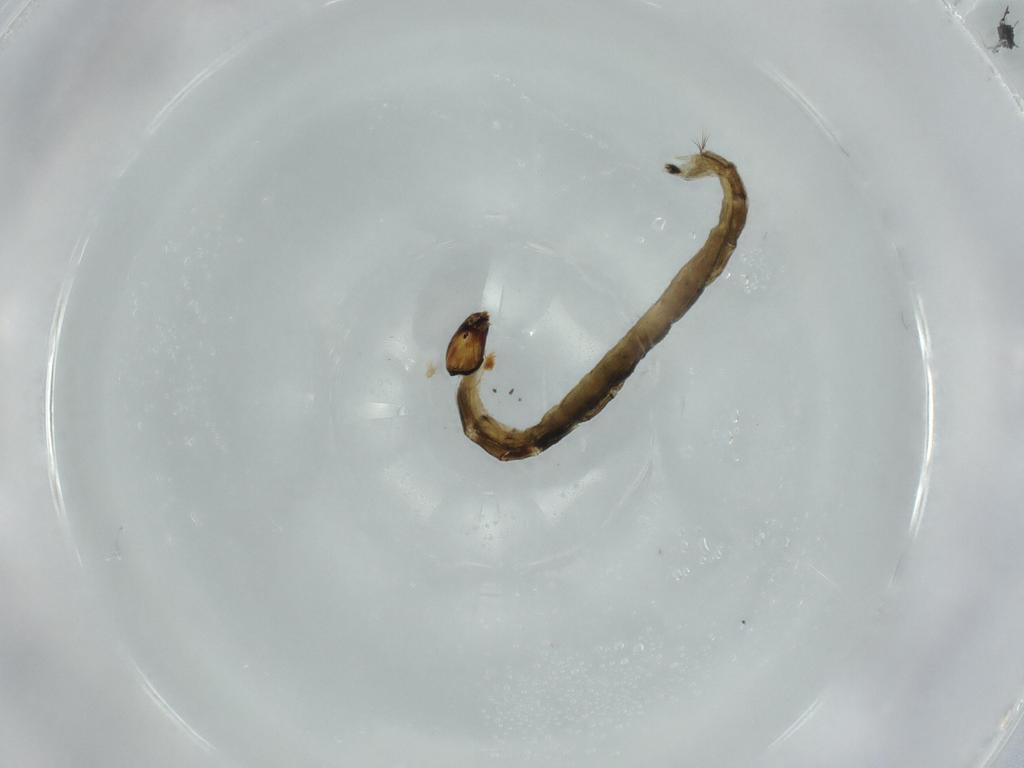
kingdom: Animalia
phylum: Arthropoda
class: Insecta
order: Diptera
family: Chironomidae
